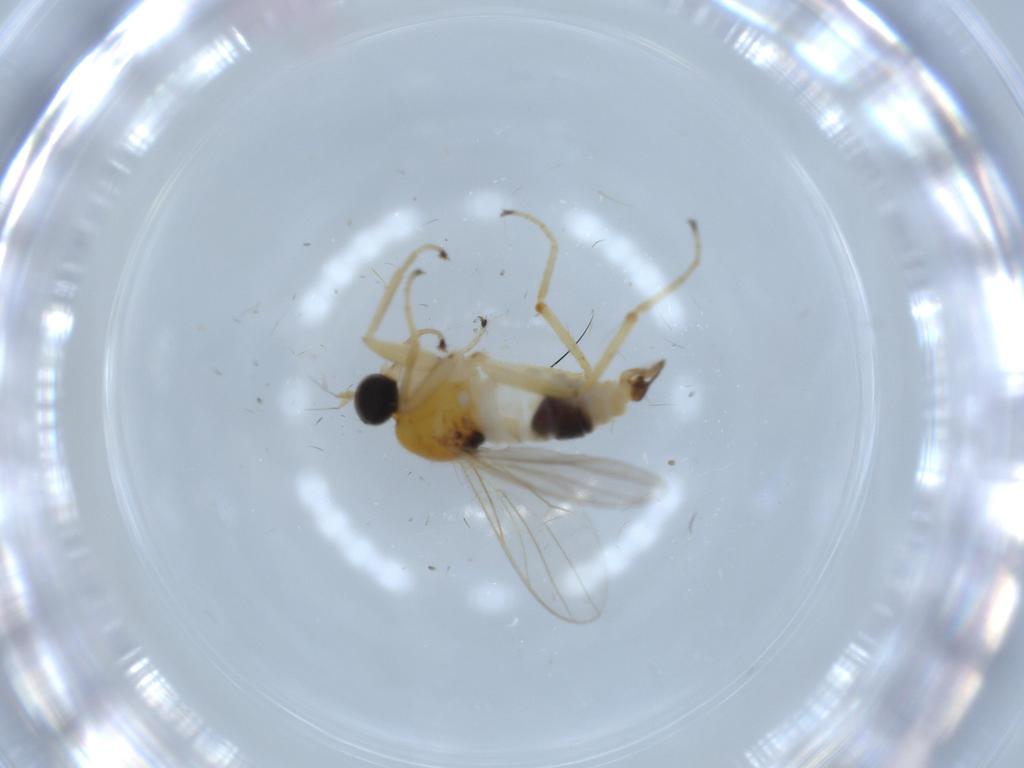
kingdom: Animalia
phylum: Arthropoda
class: Insecta
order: Diptera
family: Hybotidae
